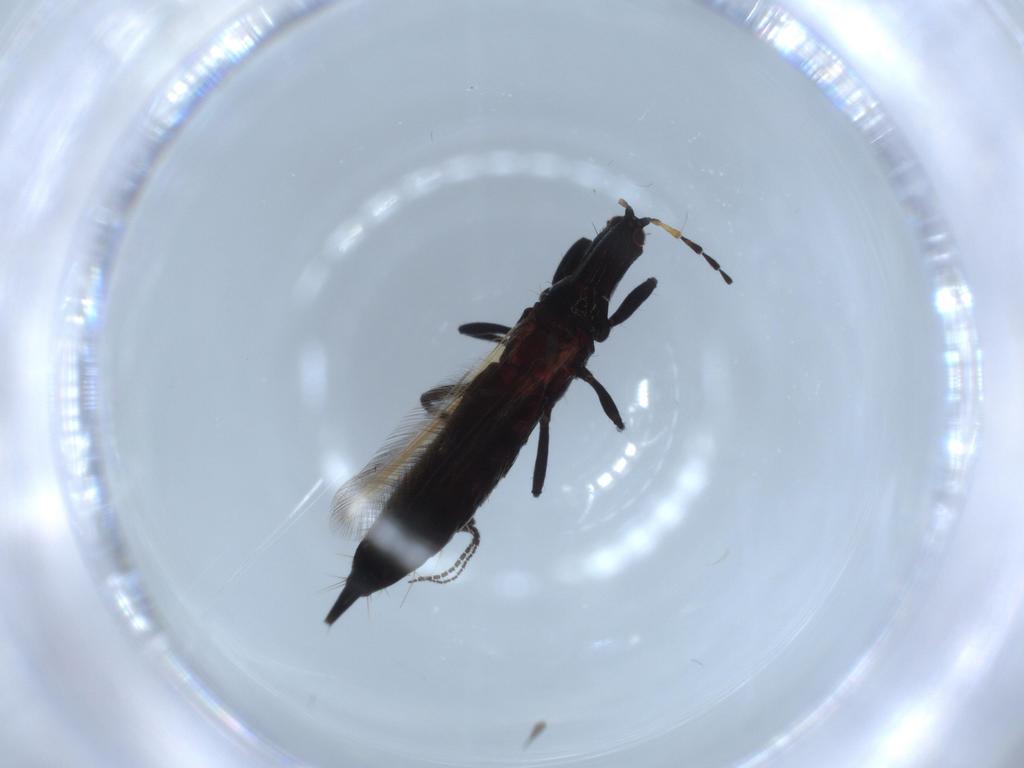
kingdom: Animalia
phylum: Arthropoda
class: Insecta
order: Thysanoptera
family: Phlaeothripidae
